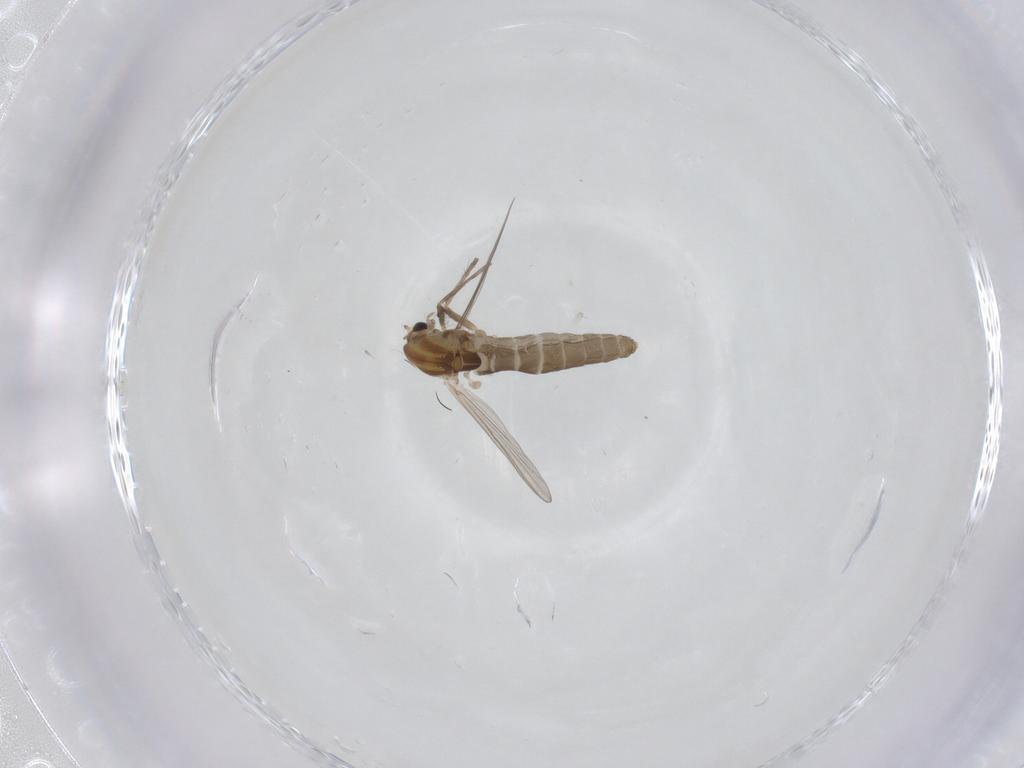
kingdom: Animalia
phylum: Arthropoda
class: Insecta
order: Diptera
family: Chironomidae
